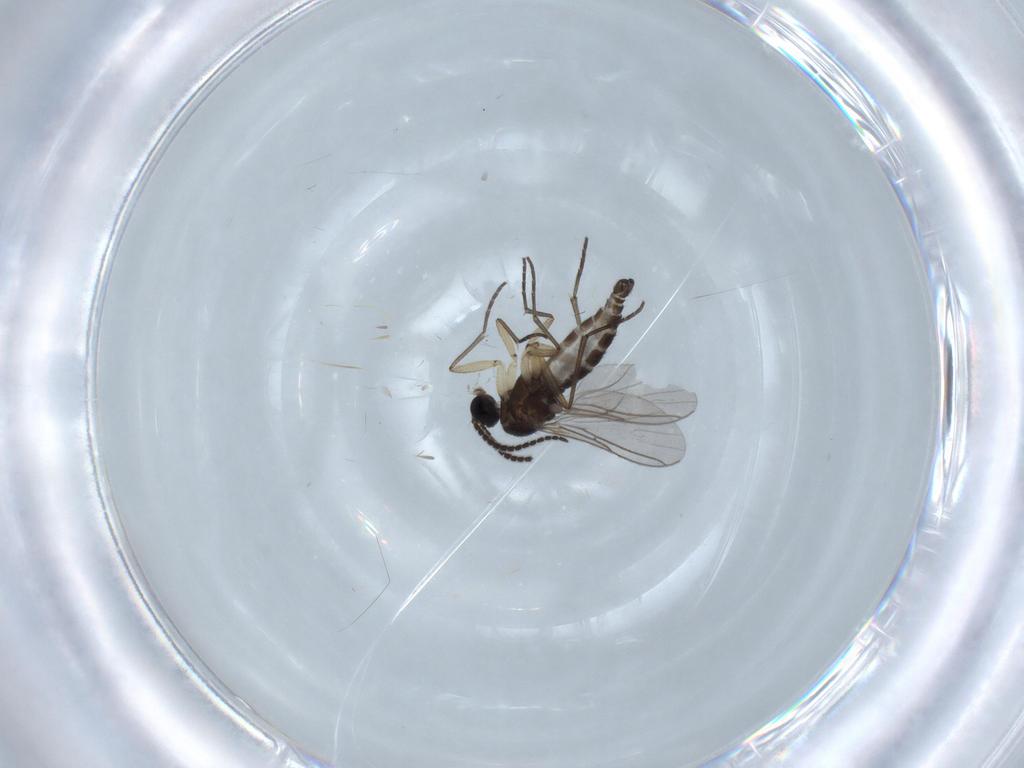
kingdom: Animalia
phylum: Arthropoda
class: Insecta
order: Diptera
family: Sciaridae
